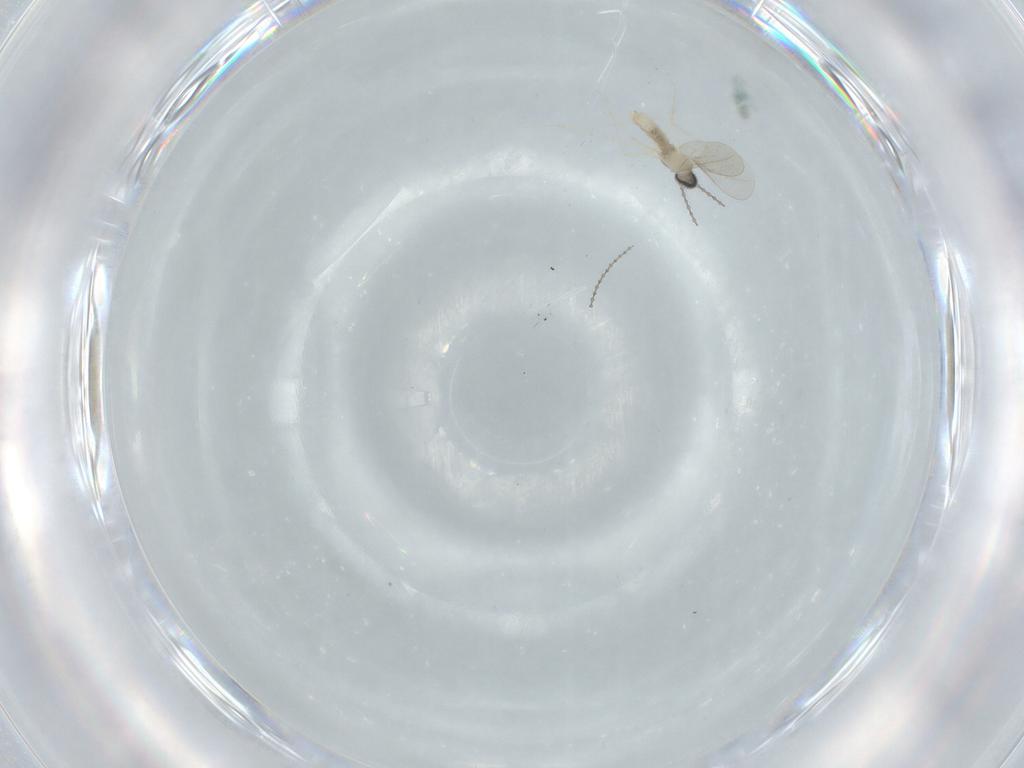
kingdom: Animalia
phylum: Arthropoda
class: Insecta
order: Diptera
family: Cecidomyiidae
